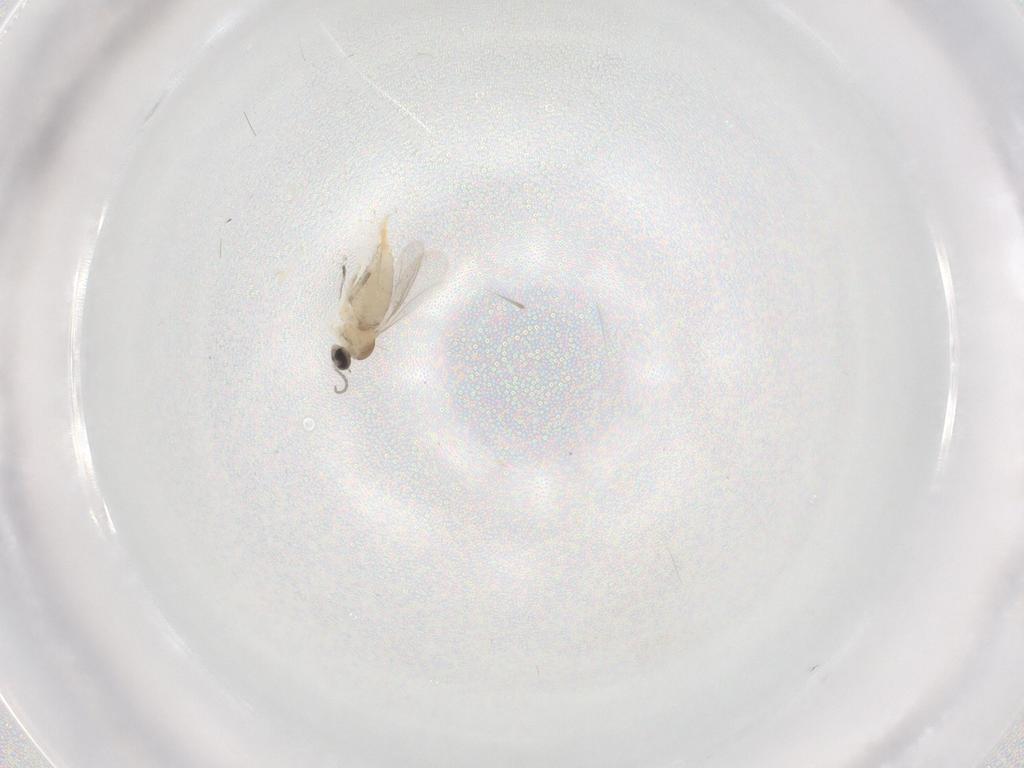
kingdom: Animalia
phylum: Arthropoda
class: Insecta
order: Diptera
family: Cecidomyiidae
